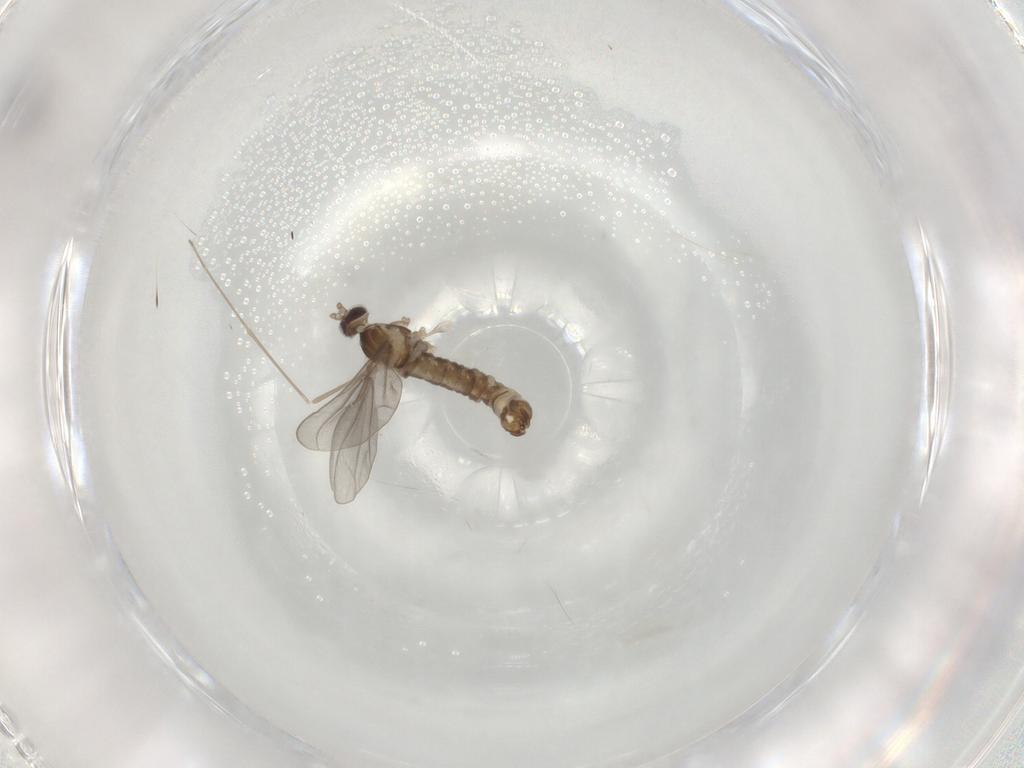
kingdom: Animalia
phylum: Arthropoda
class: Insecta
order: Diptera
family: Cecidomyiidae
